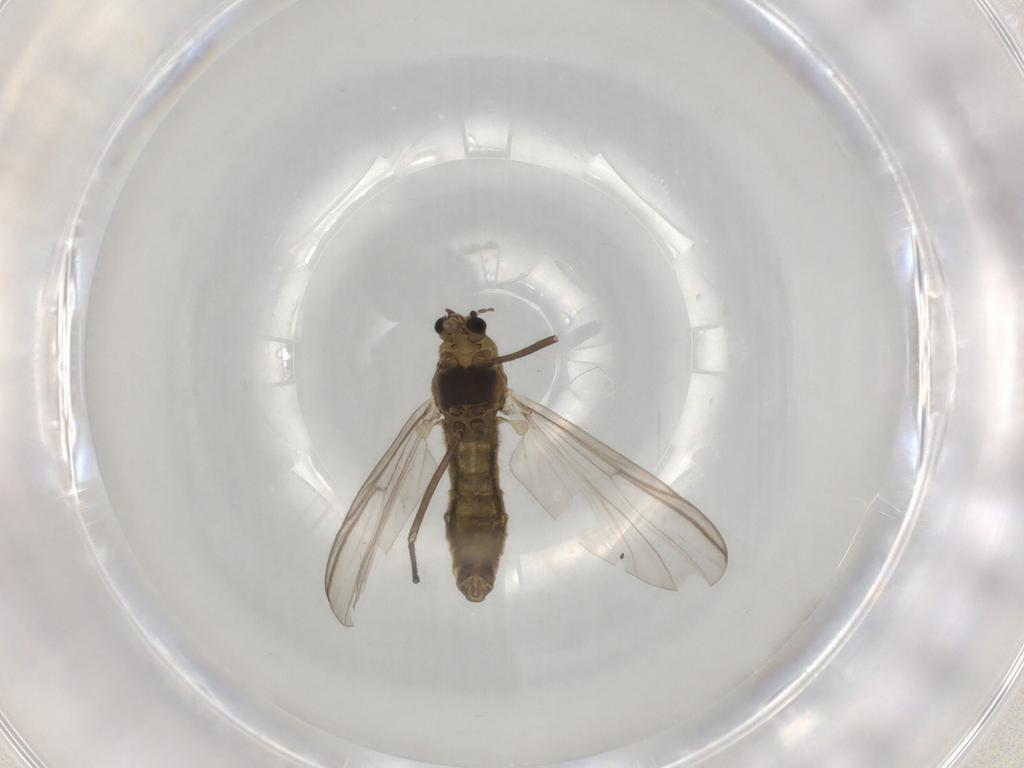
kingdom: Animalia
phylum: Arthropoda
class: Insecta
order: Diptera
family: Chironomidae
